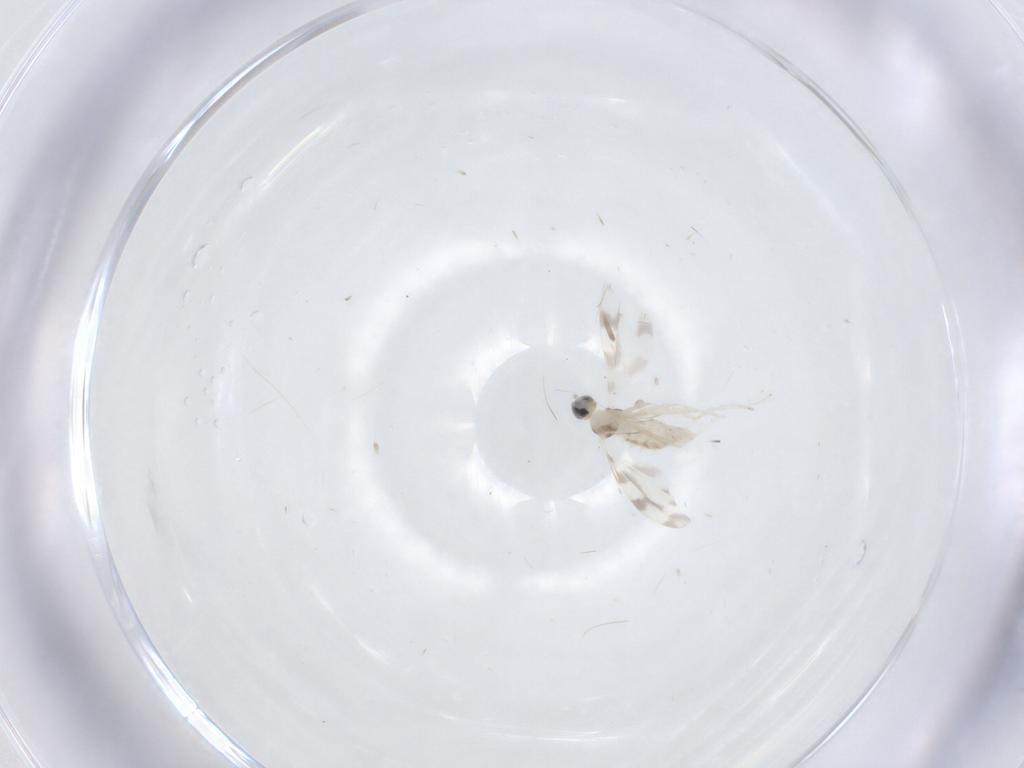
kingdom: Animalia
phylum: Arthropoda
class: Insecta
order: Diptera
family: Cecidomyiidae
